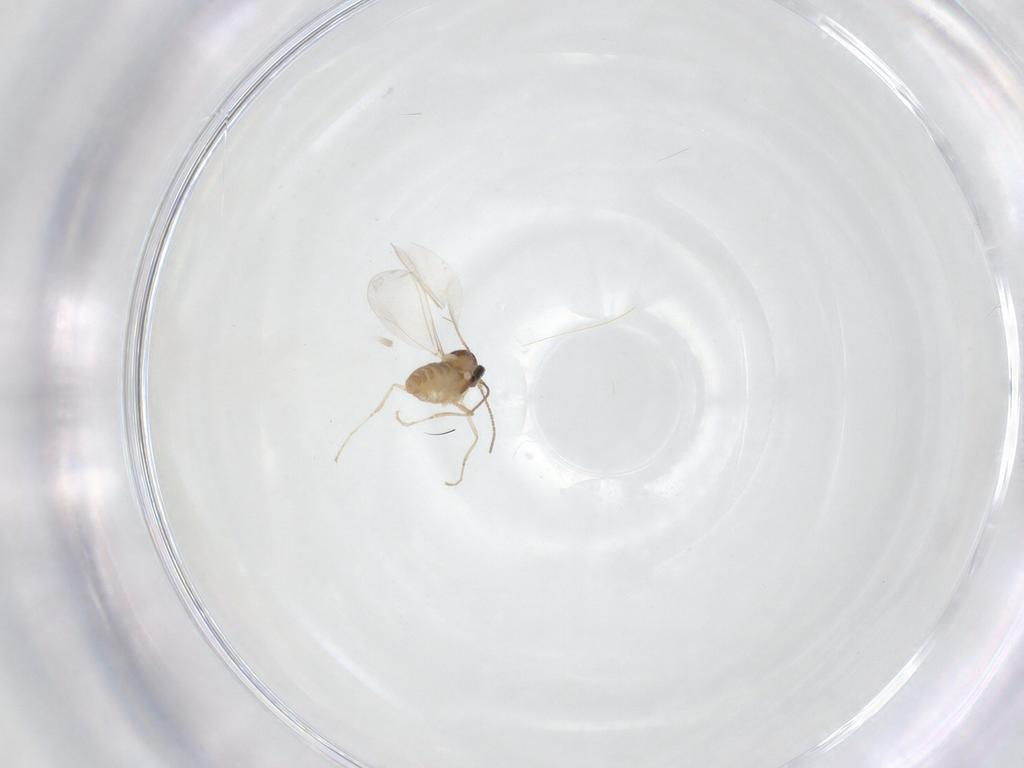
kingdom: Animalia
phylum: Arthropoda
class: Insecta
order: Diptera
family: Cecidomyiidae
